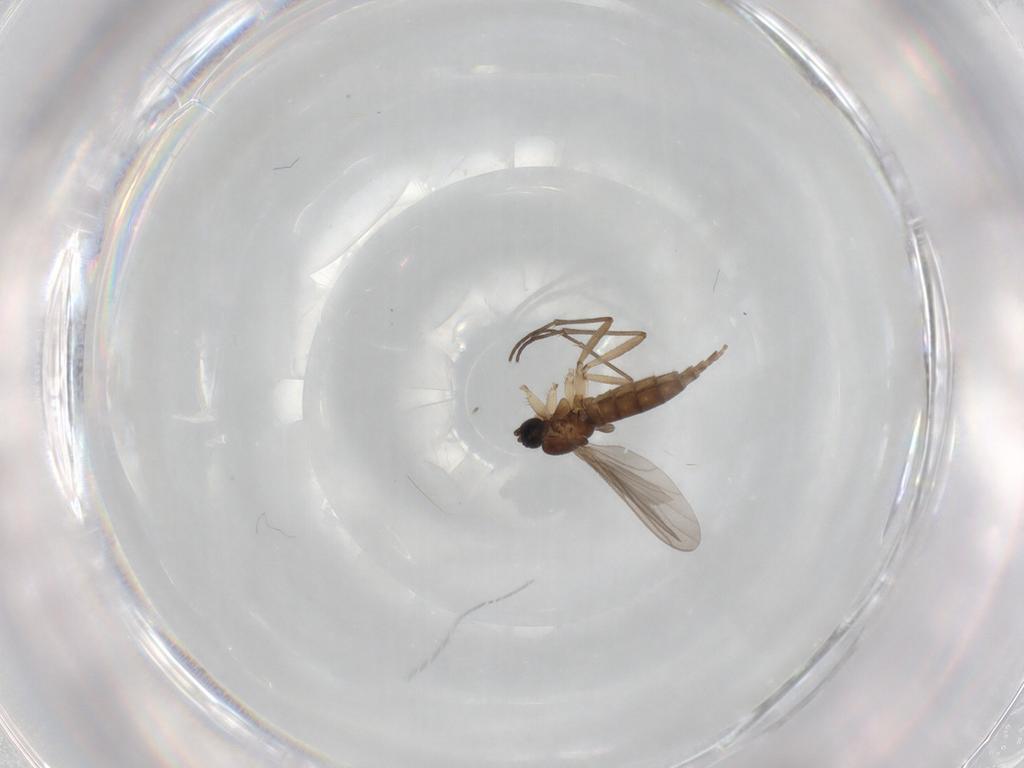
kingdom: Animalia
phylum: Arthropoda
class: Insecta
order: Diptera
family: Sciaridae
